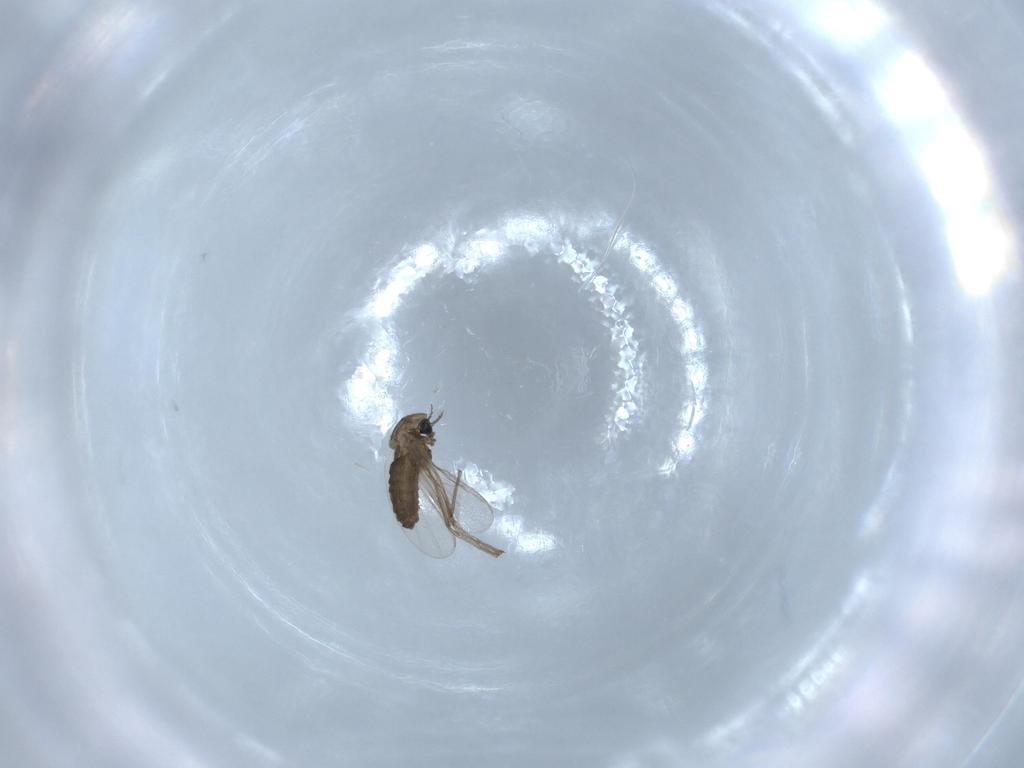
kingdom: Animalia
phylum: Arthropoda
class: Insecta
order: Diptera
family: Chironomidae
